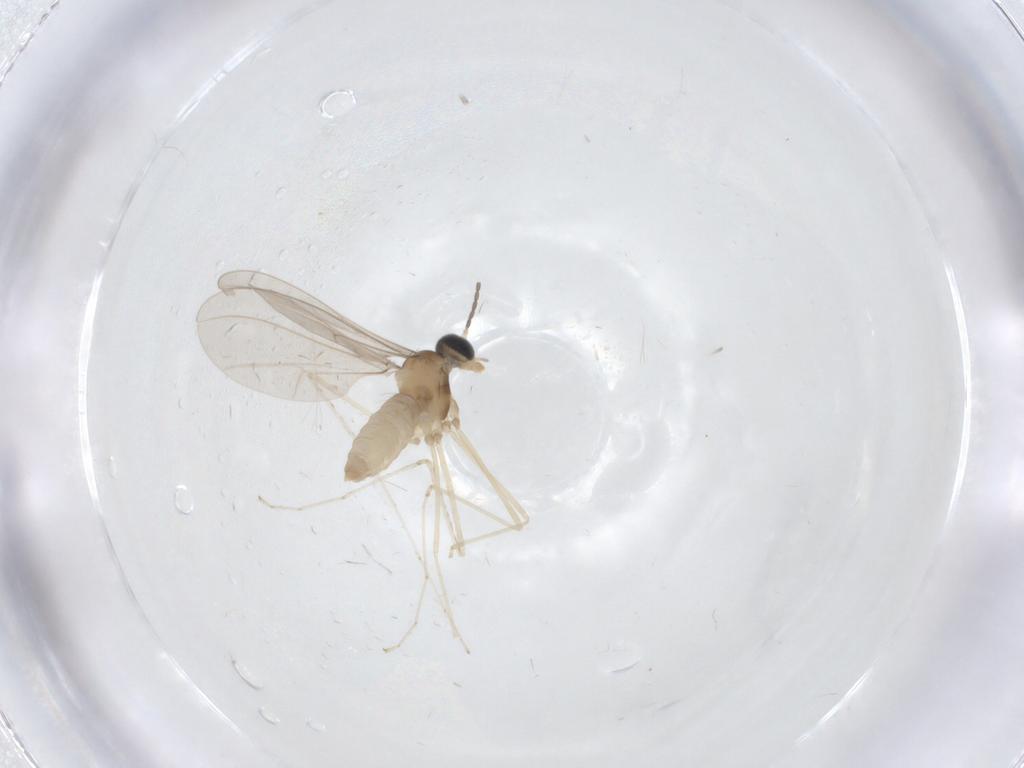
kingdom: Animalia
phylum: Arthropoda
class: Insecta
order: Diptera
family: Cecidomyiidae
